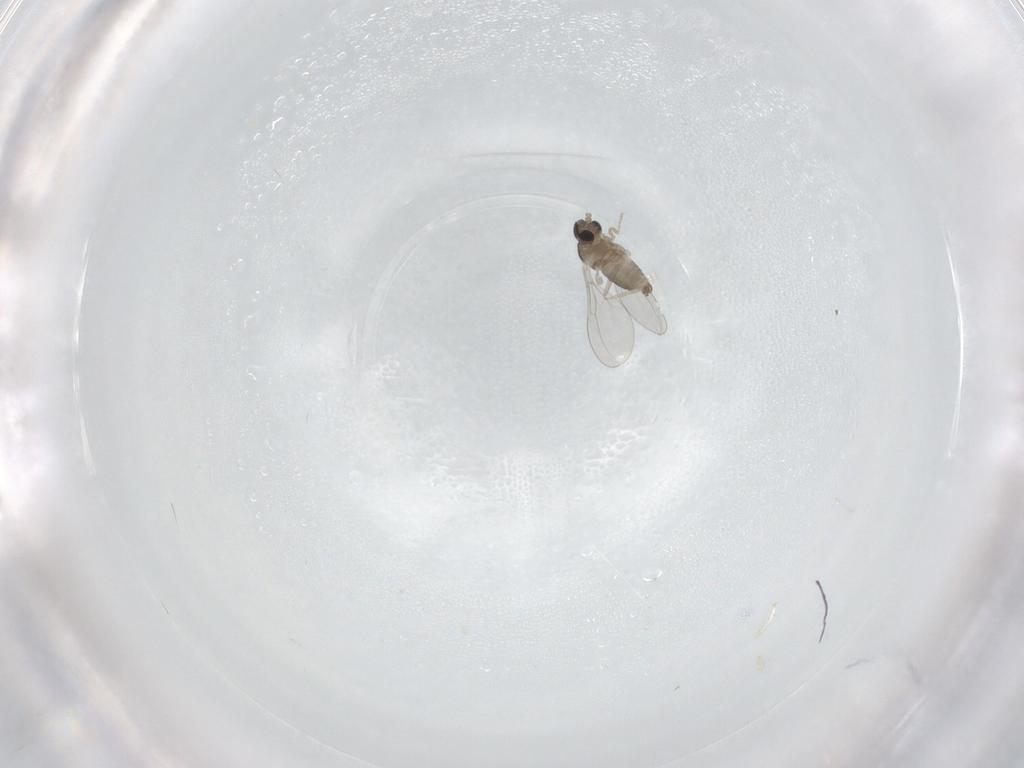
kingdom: Animalia
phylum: Arthropoda
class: Insecta
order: Diptera
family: Cecidomyiidae
